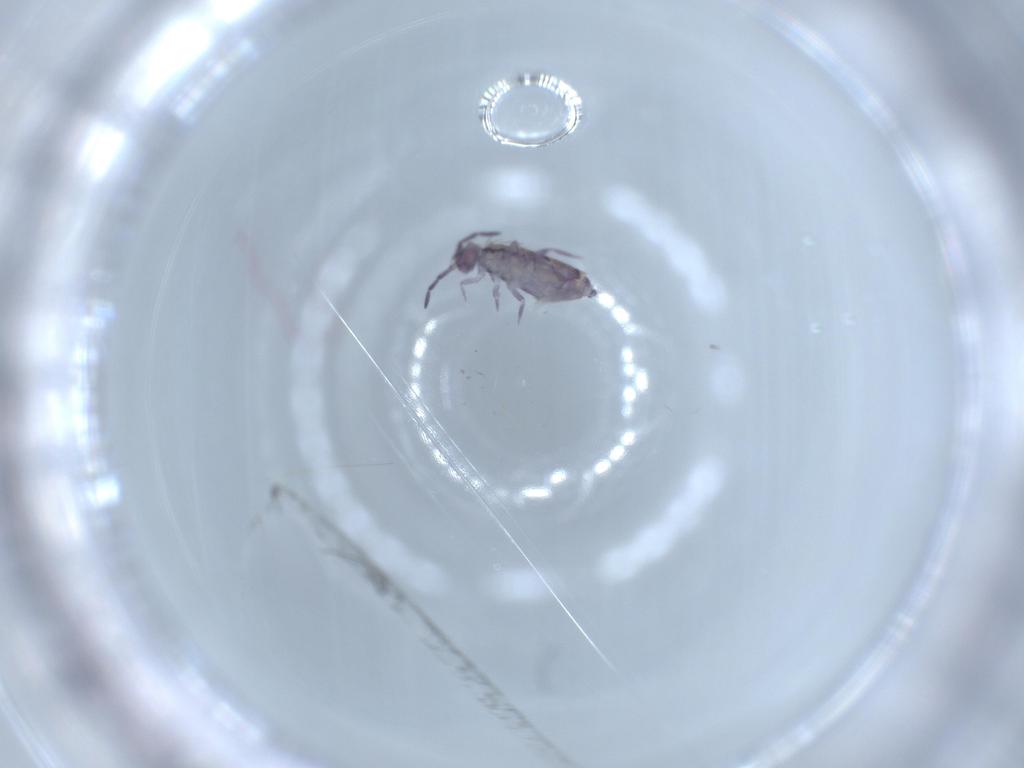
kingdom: Animalia
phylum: Arthropoda
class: Collembola
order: Entomobryomorpha
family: Entomobryidae
